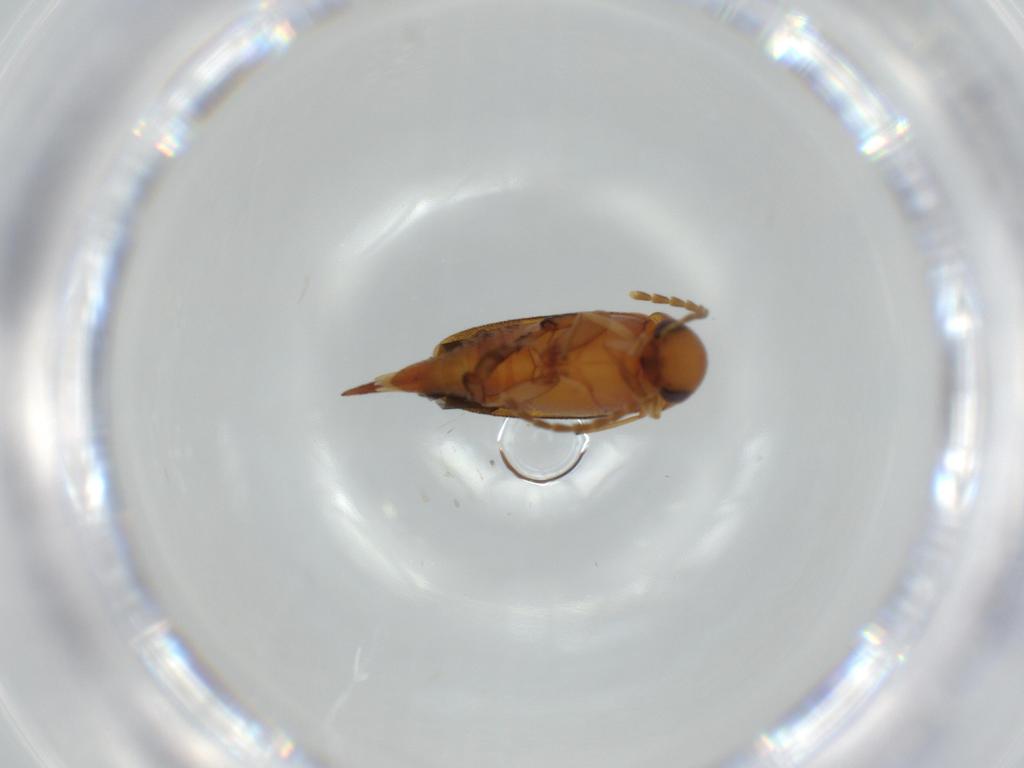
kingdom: Animalia
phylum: Arthropoda
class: Insecta
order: Coleoptera
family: Mordellidae
